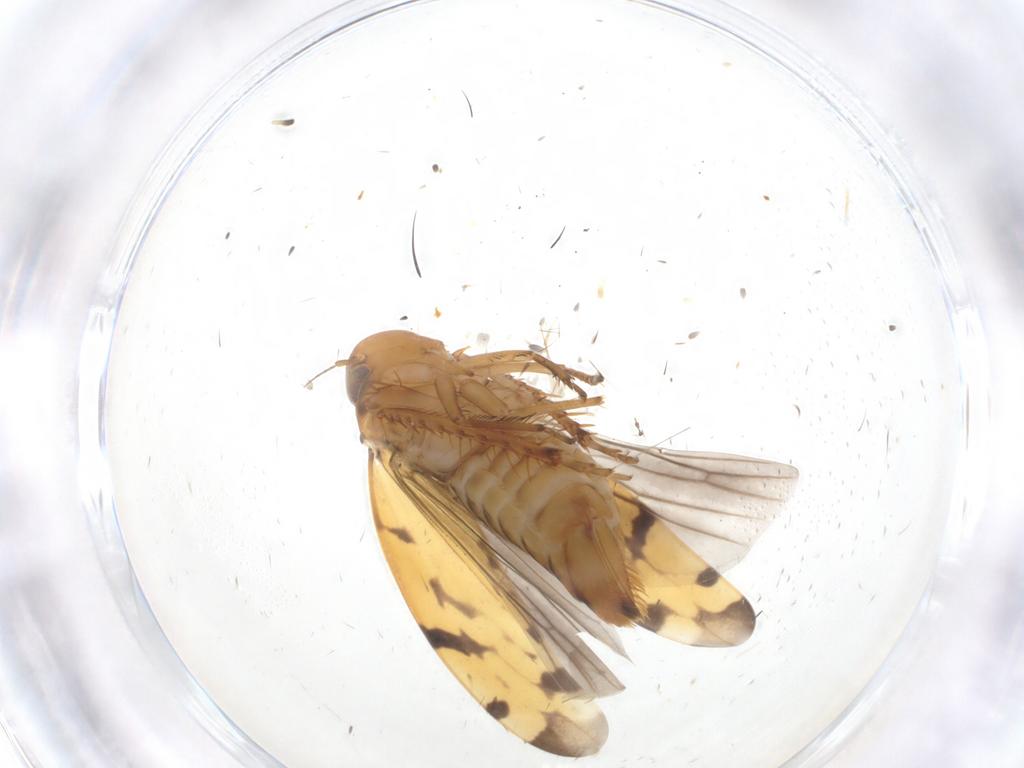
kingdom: Animalia
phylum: Arthropoda
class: Insecta
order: Hemiptera
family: Cicadellidae
